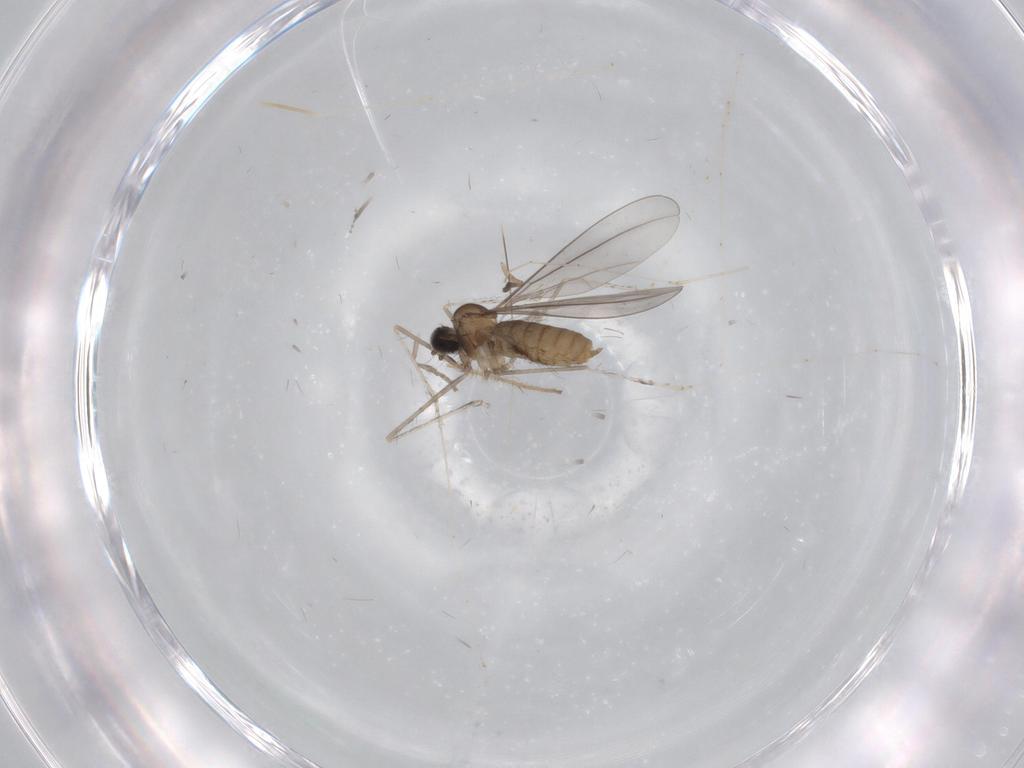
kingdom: Animalia
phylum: Arthropoda
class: Insecta
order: Diptera
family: Cecidomyiidae
